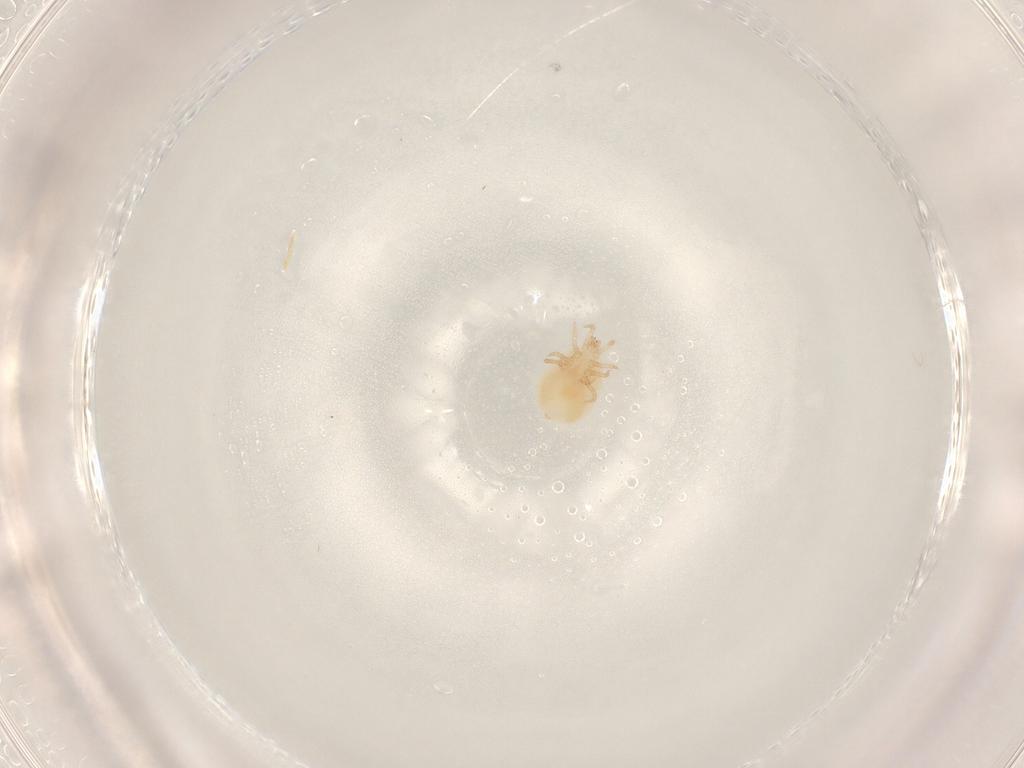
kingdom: Animalia
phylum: Arthropoda
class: Arachnida
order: Mesostigmata
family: Laelapidae
